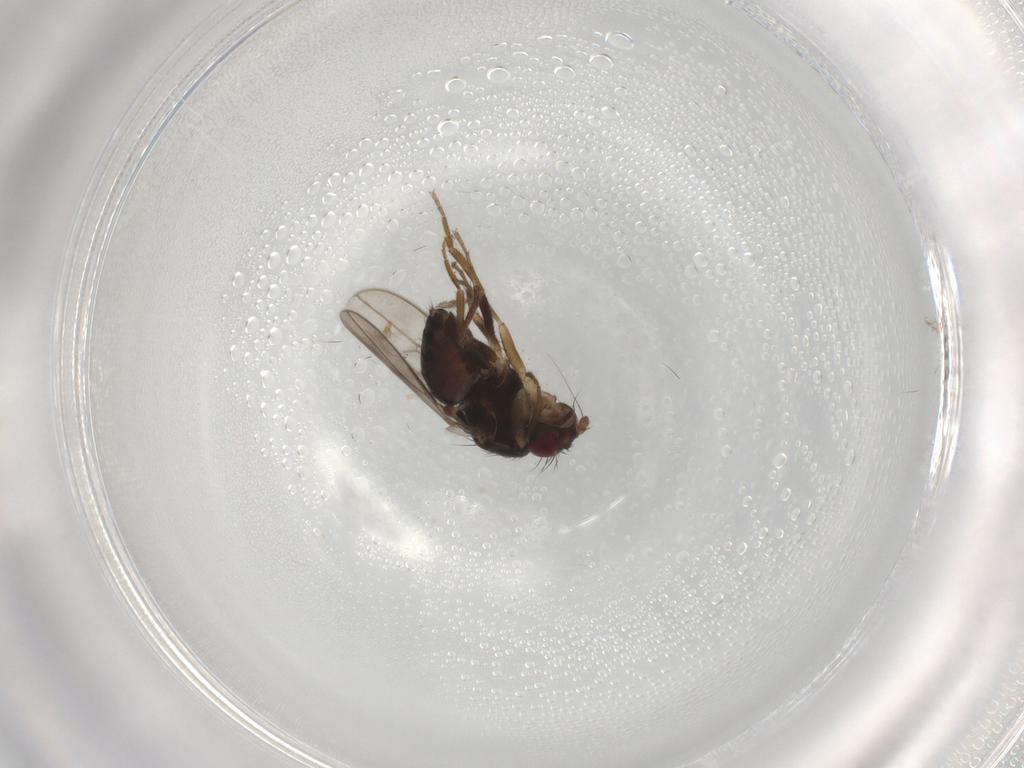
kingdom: Animalia
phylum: Arthropoda
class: Insecta
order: Diptera
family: Sphaeroceridae
